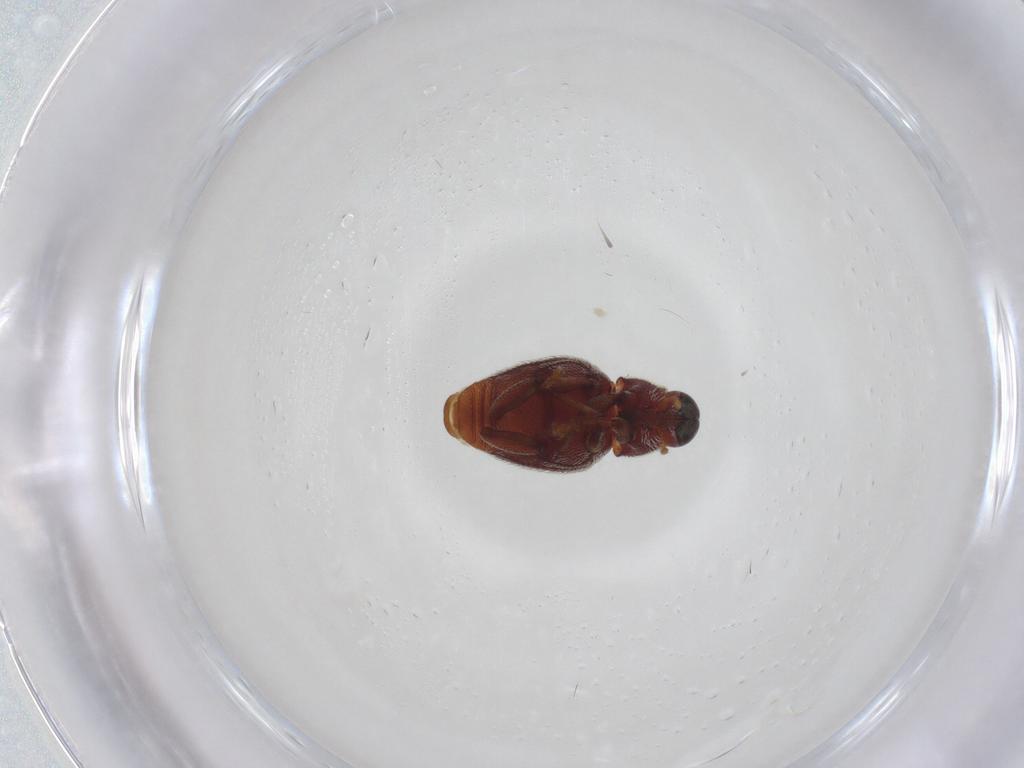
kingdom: Animalia
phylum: Arthropoda
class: Insecta
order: Coleoptera
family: Curculionidae
